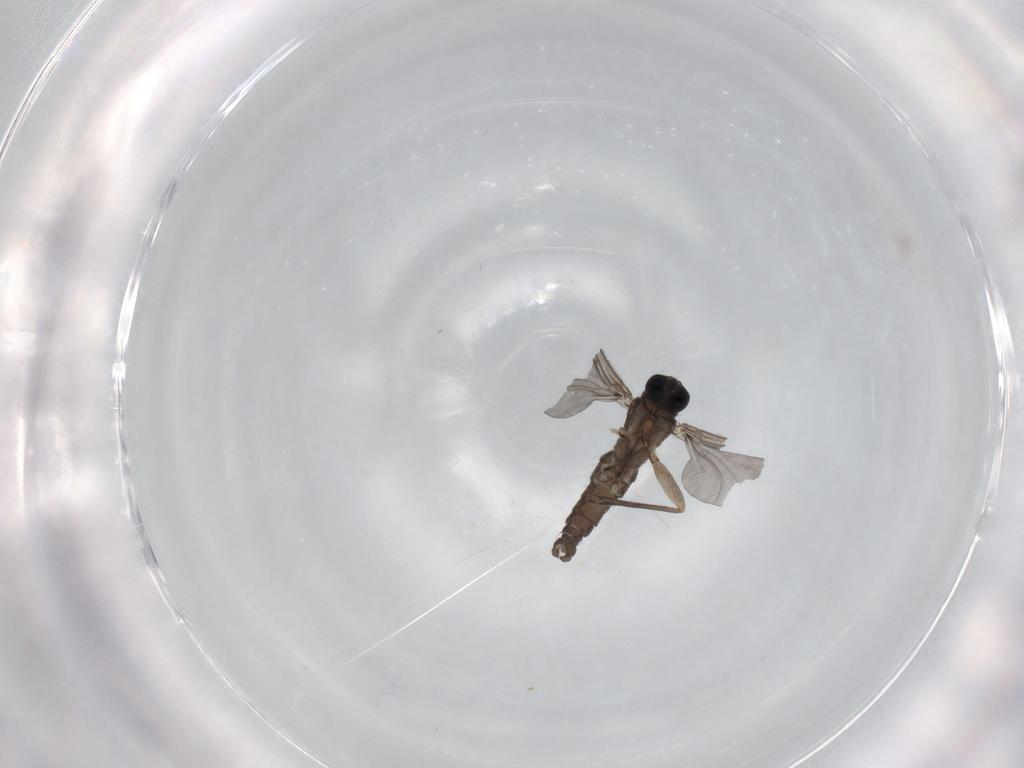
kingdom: Animalia
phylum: Arthropoda
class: Insecta
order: Diptera
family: Sciaridae
